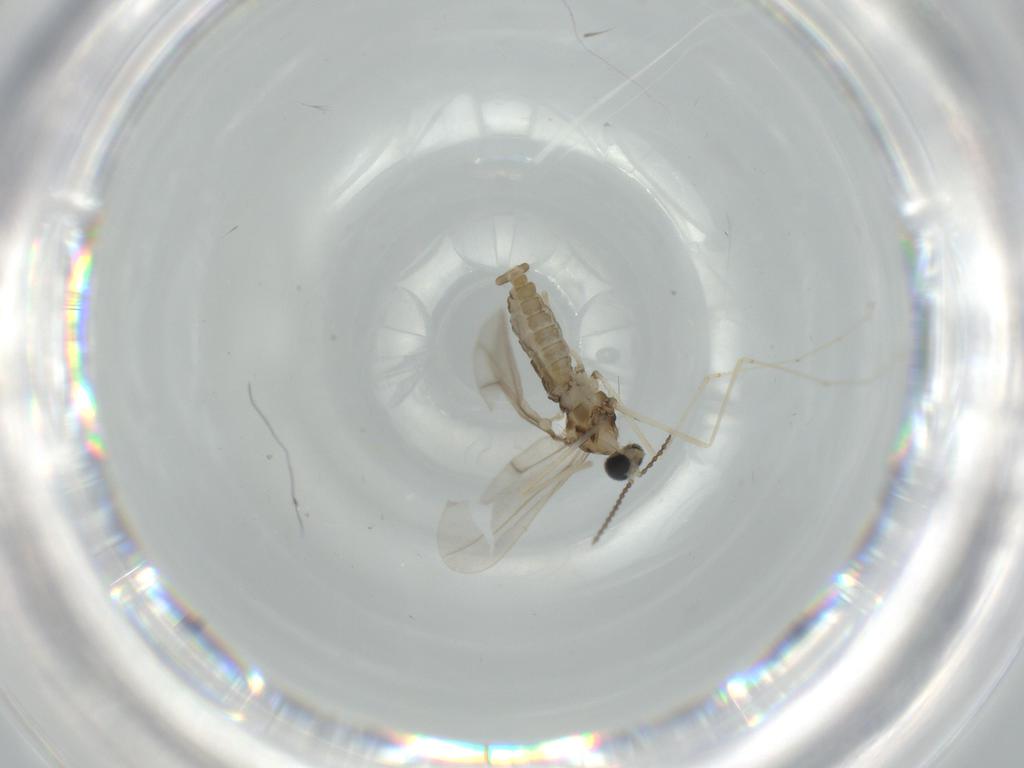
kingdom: Animalia
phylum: Arthropoda
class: Insecta
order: Diptera
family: Cecidomyiidae
